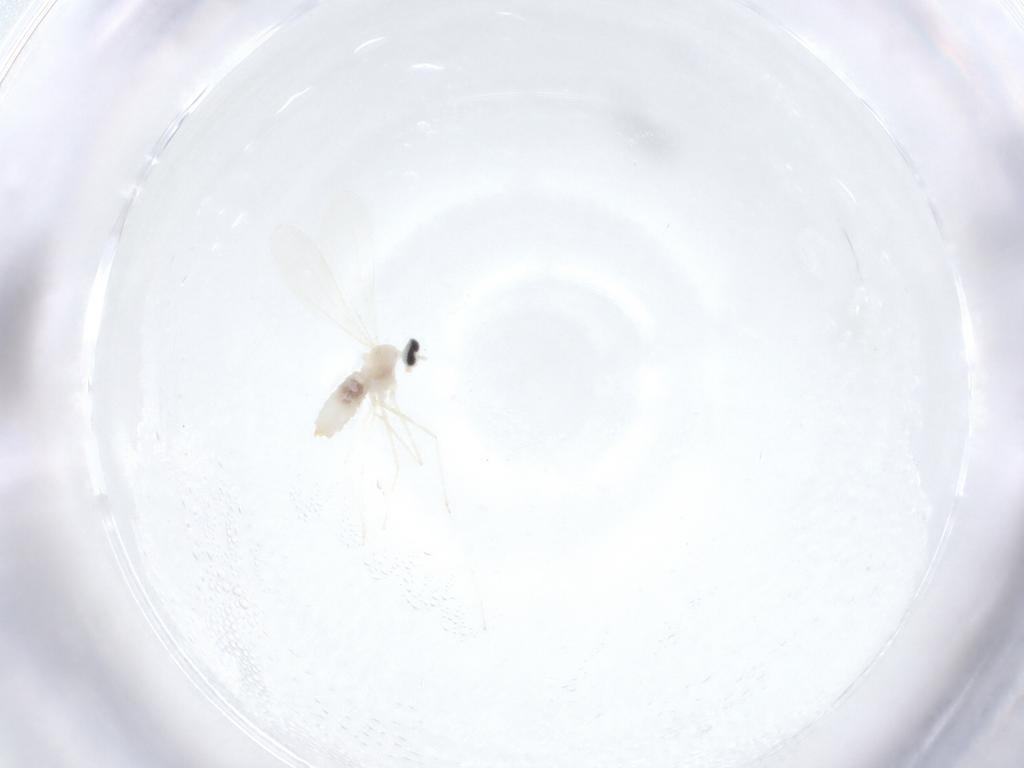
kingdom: Animalia
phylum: Arthropoda
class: Insecta
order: Diptera
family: Cecidomyiidae
